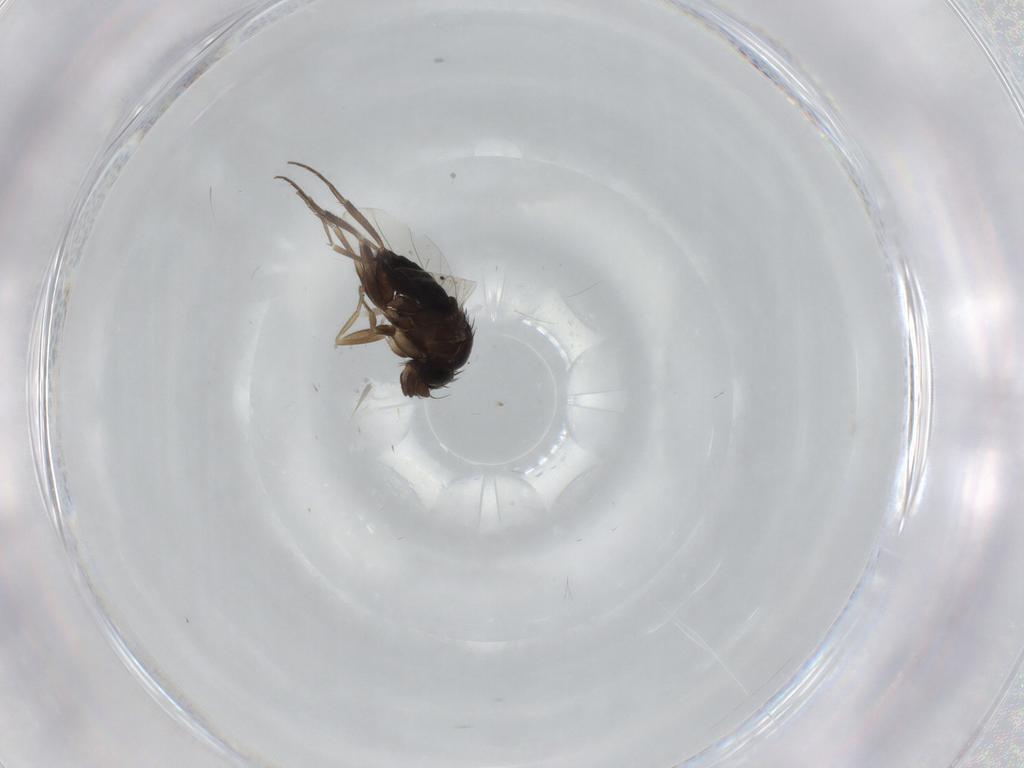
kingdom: Animalia
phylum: Arthropoda
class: Insecta
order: Diptera
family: Phoridae
